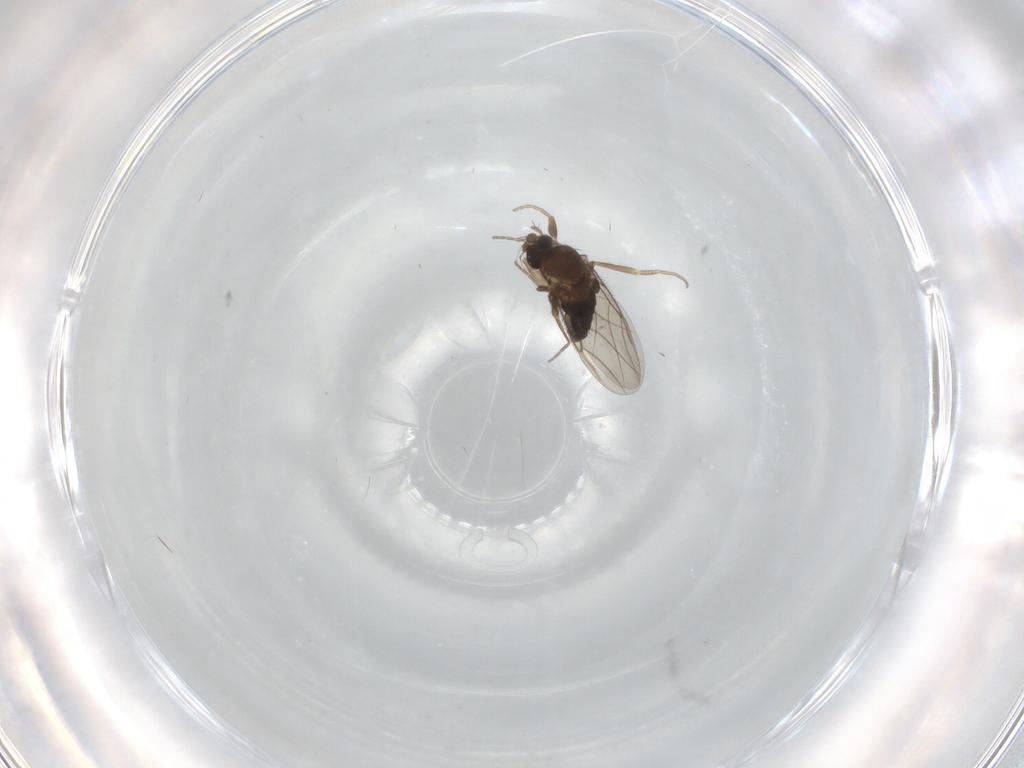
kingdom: Animalia
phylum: Arthropoda
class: Insecta
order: Diptera
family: Phoridae
